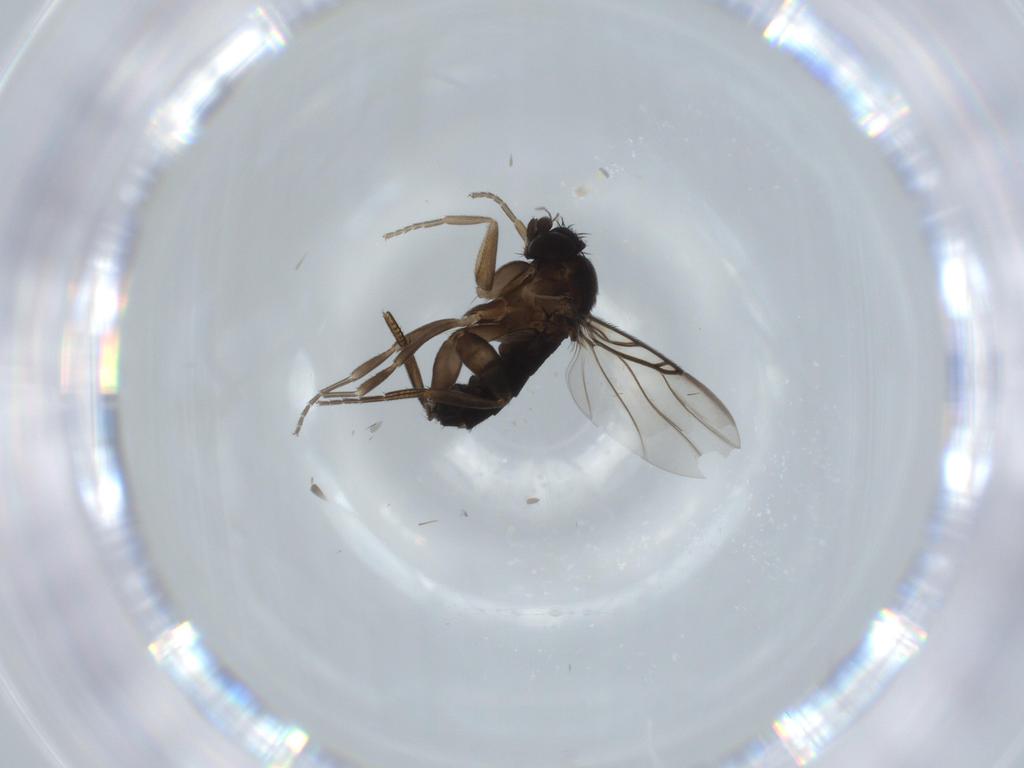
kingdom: Animalia
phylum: Arthropoda
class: Insecta
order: Diptera
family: Phoridae
